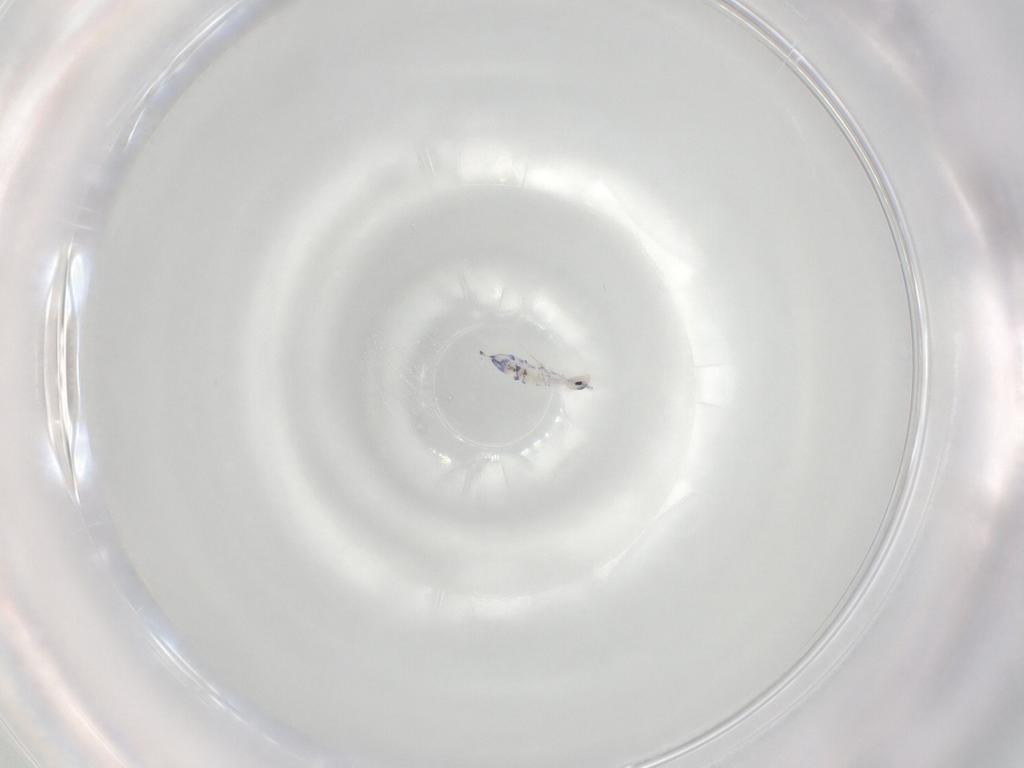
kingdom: Animalia
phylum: Arthropoda
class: Collembola
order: Entomobryomorpha
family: Entomobryidae
